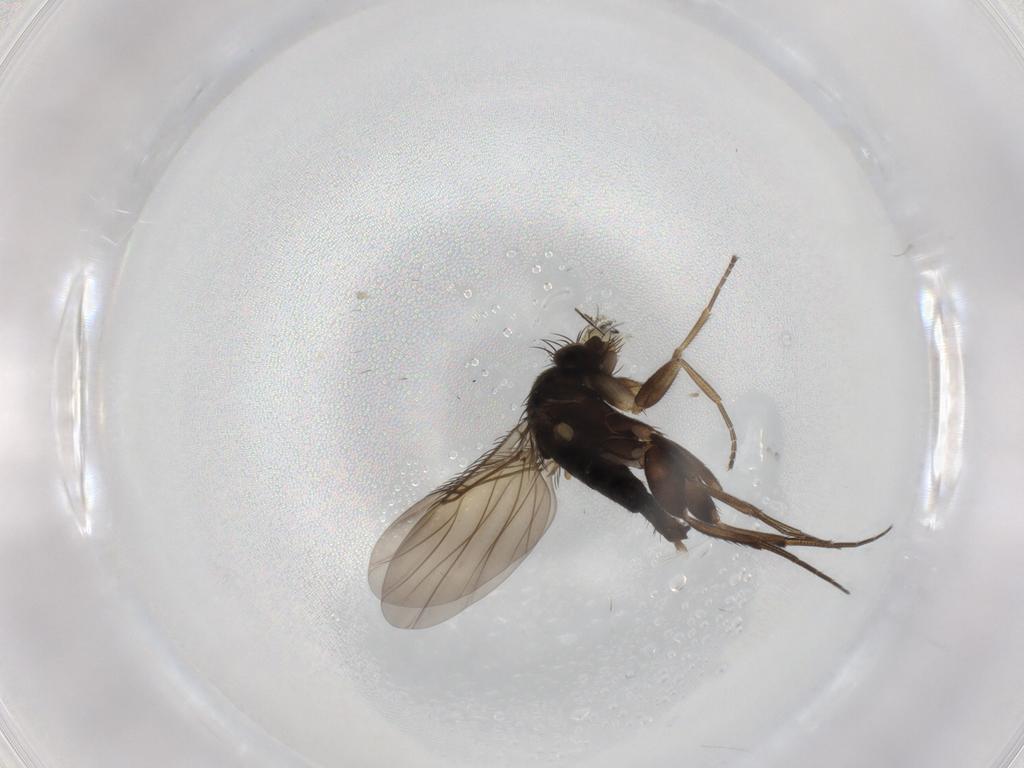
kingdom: Animalia
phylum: Arthropoda
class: Insecta
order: Diptera
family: Phoridae
